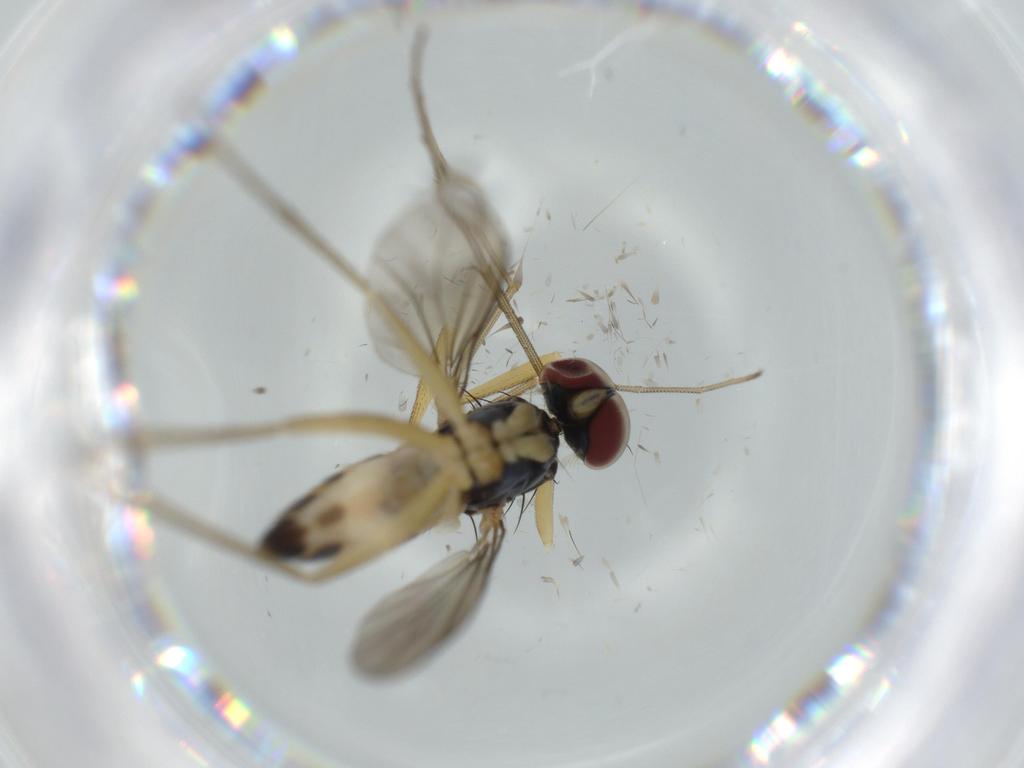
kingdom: Animalia
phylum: Arthropoda
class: Insecta
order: Diptera
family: Dolichopodidae
